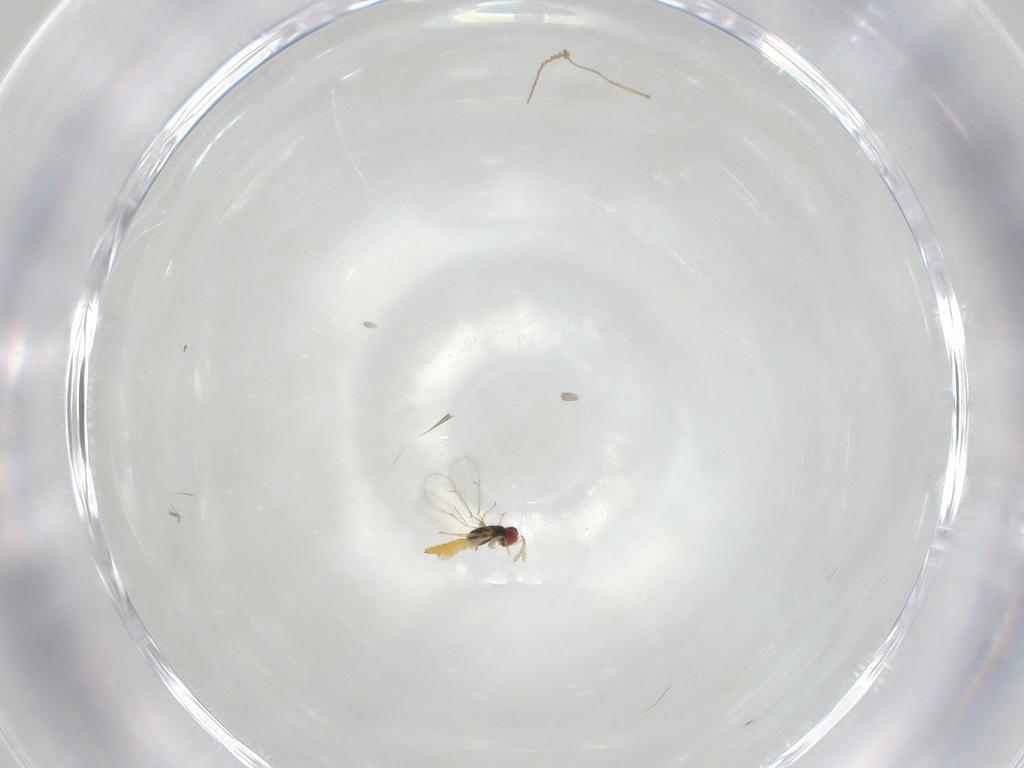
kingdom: Animalia
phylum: Arthropoda
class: Insecta
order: Hymenoptera
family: Eulophidae
